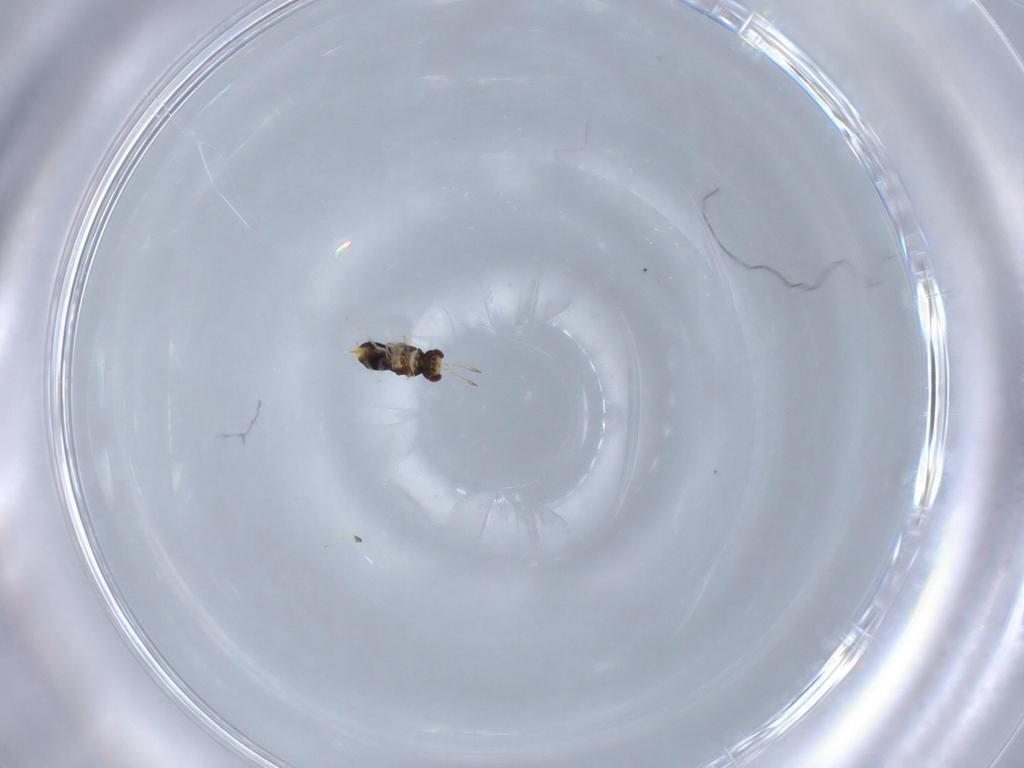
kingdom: Animalia
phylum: Arthropoda
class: Insecta
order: Hymenoptera
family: Aphelinidae
